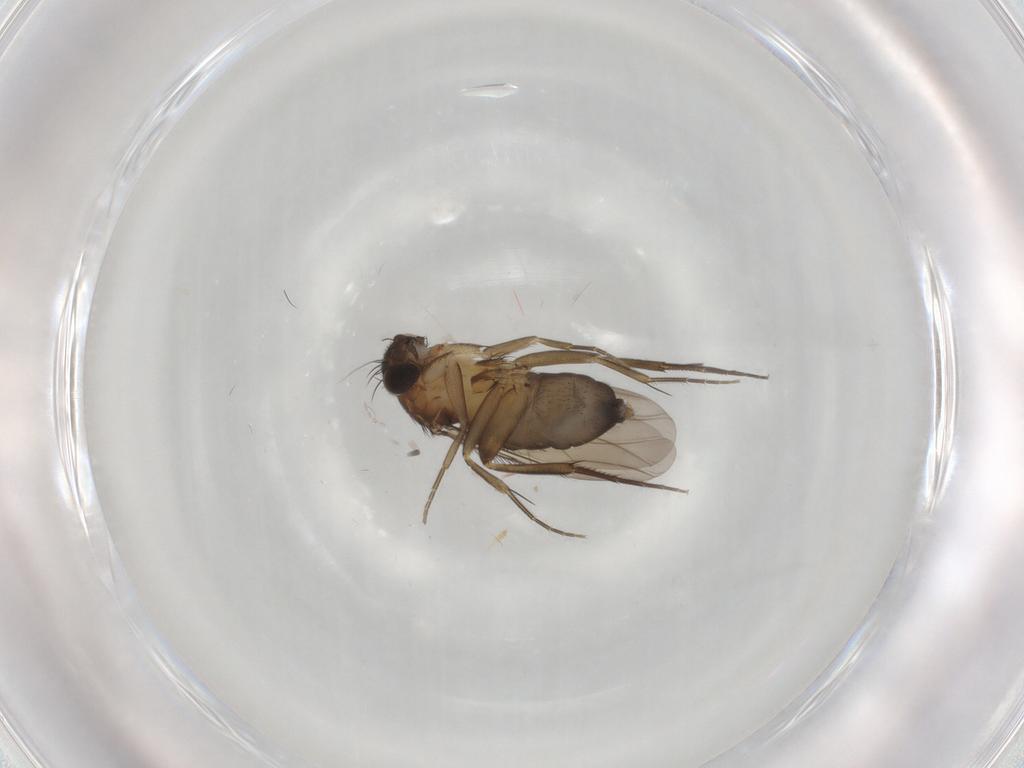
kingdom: Animalia
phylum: Arthropoda
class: Insecta
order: Diptera
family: Phoridae
